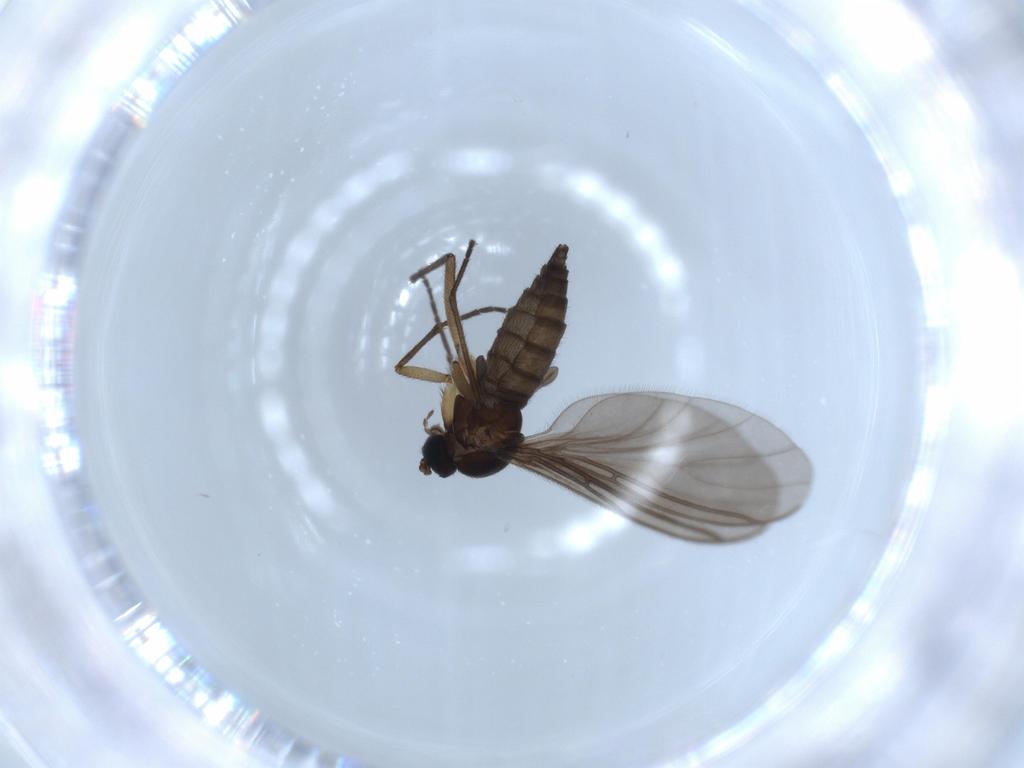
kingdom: Animalia
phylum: Arthropoda
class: Insecta
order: Diptera
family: Sciaridae
